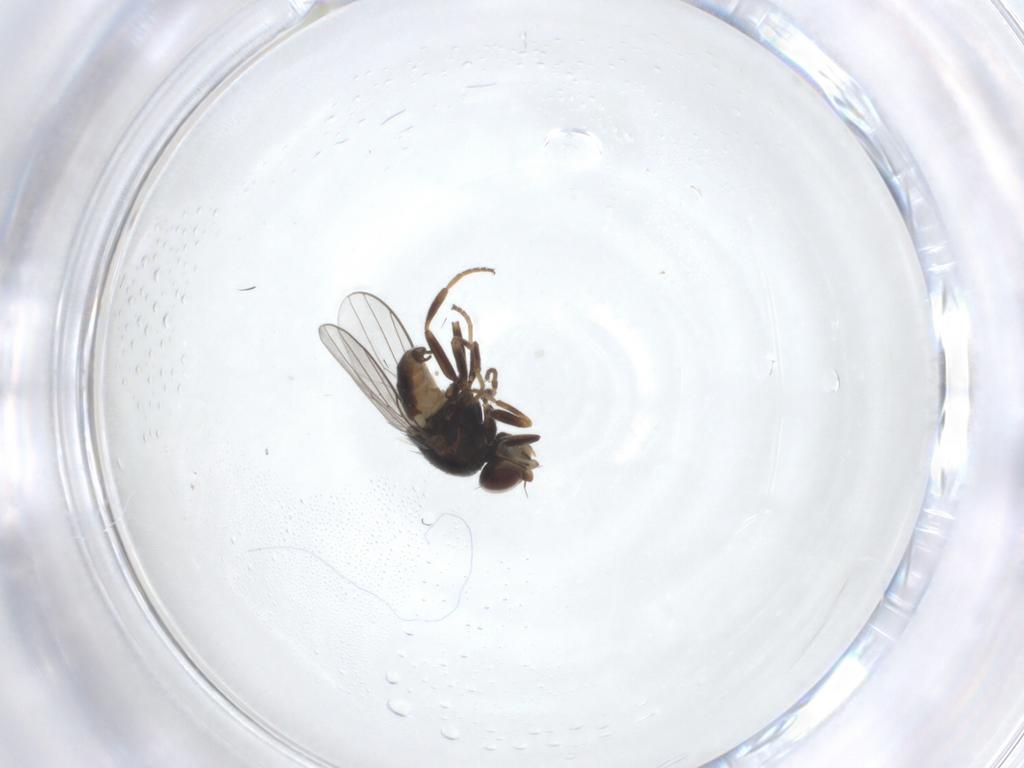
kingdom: Animalia
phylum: Arthropoda
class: Insecta
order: Diptera
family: Chloropidae
